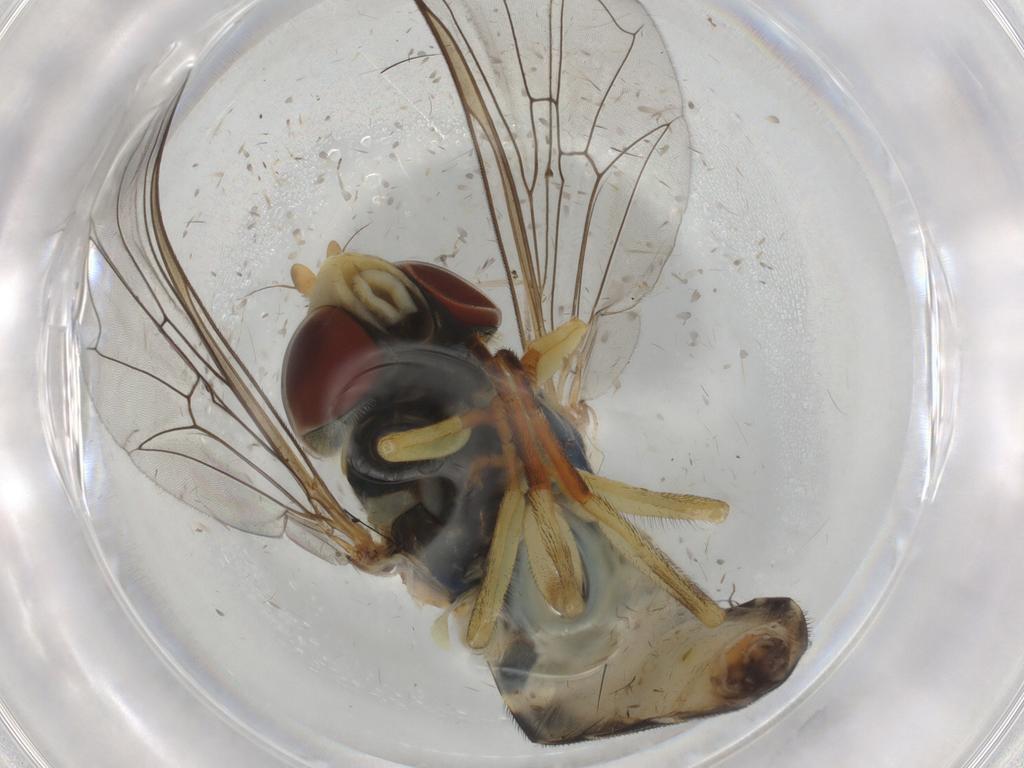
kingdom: Animalia
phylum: Arthropoda
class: Insecta
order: Diptera
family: Syrphidae
